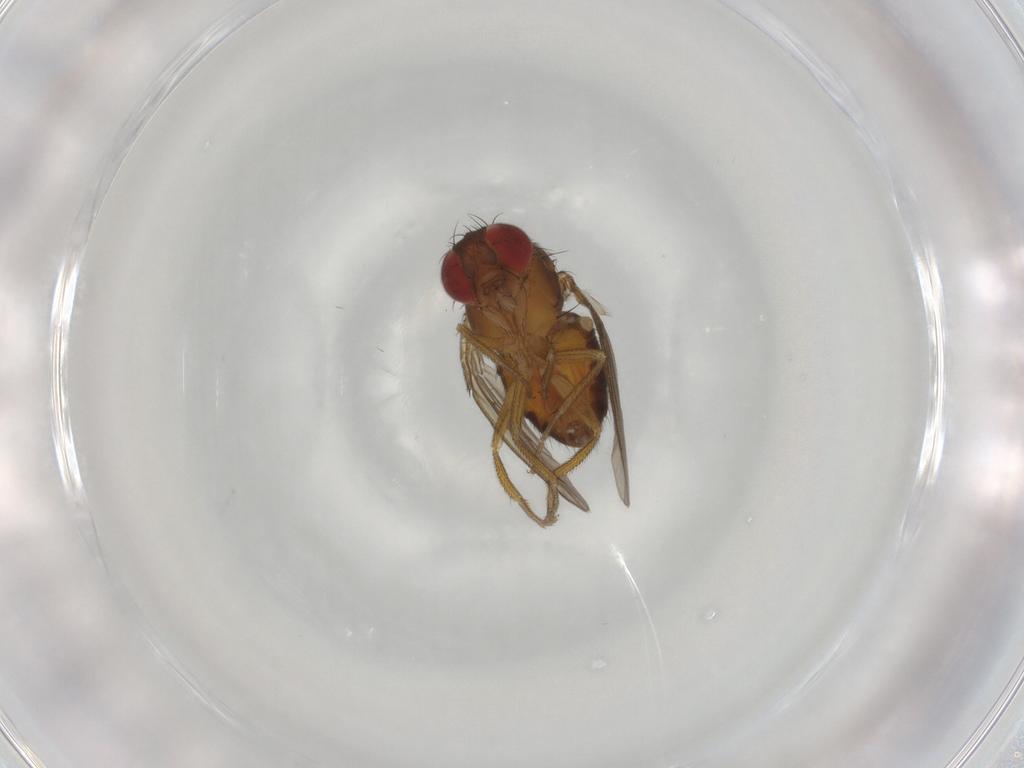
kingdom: Animalia
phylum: Arthropoda
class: Insecta
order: Diptera
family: Drosophilidae
